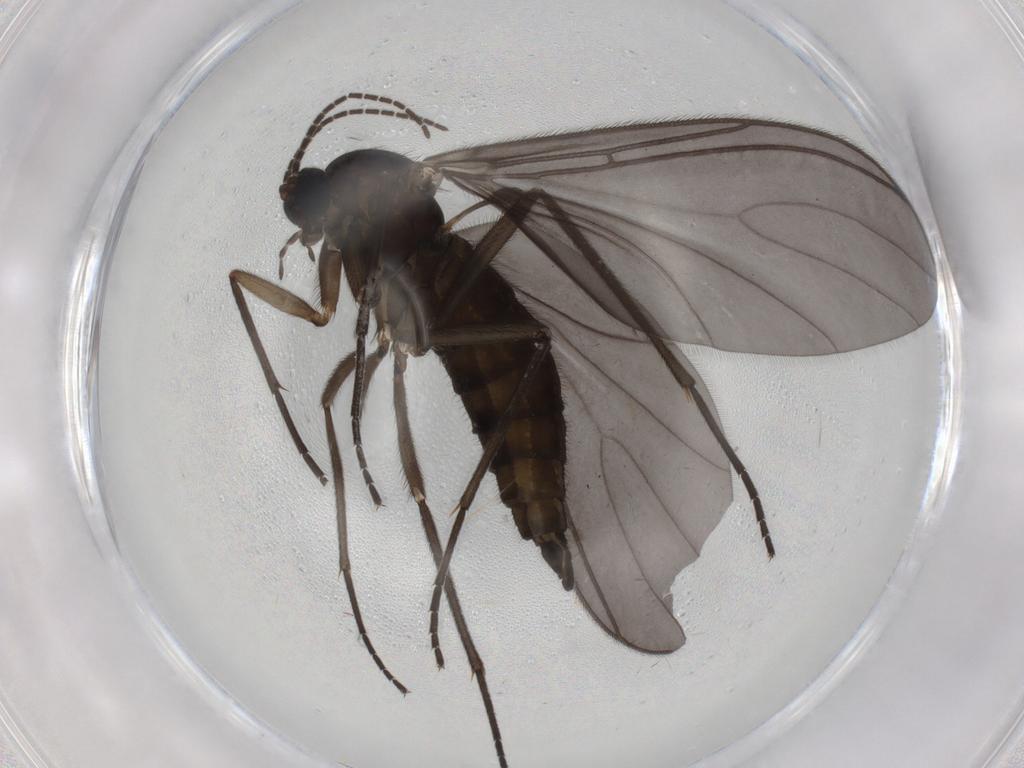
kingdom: Animalia
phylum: Arthropoda
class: Insecta
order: Diptera
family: Sciaridae
